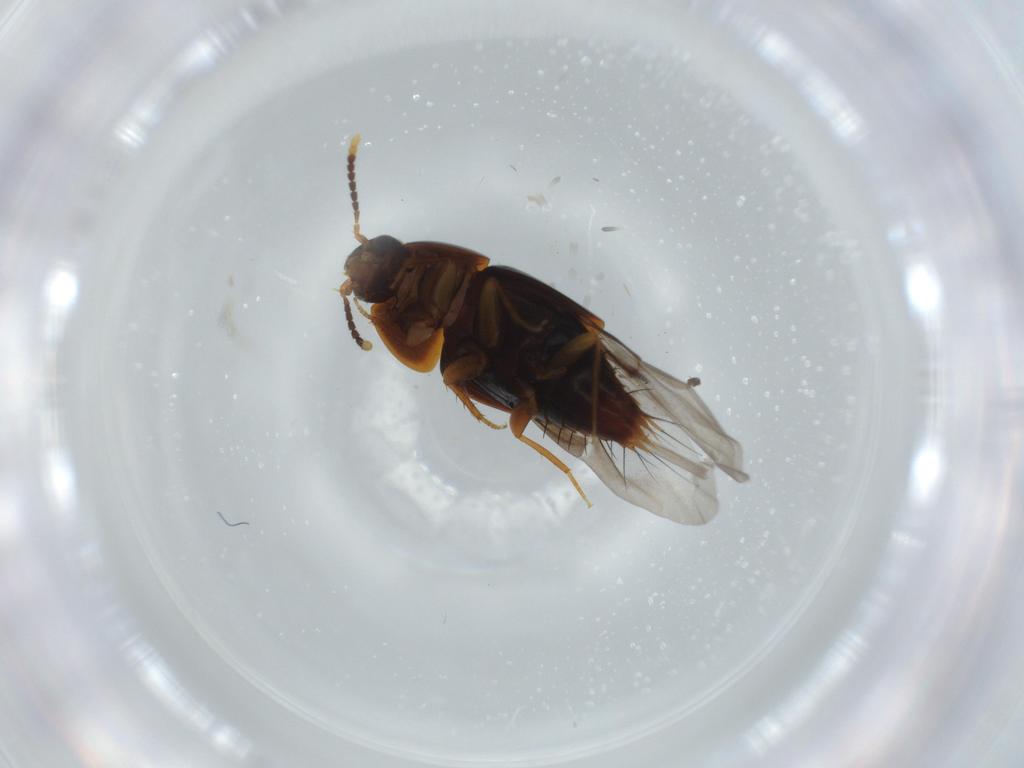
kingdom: Animalia
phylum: Arthropoda
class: Insecta
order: Coleoptera
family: Staphylinidae
